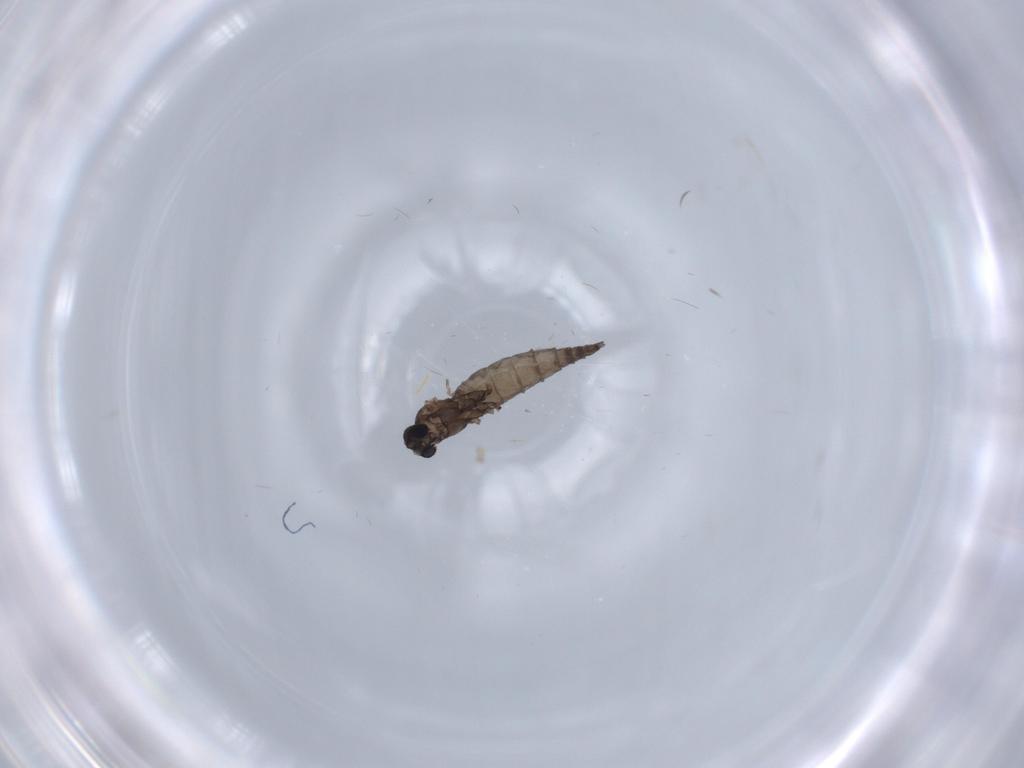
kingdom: Animalia
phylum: Arthropoda
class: Insecta
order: Diptera
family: Sciaridae
